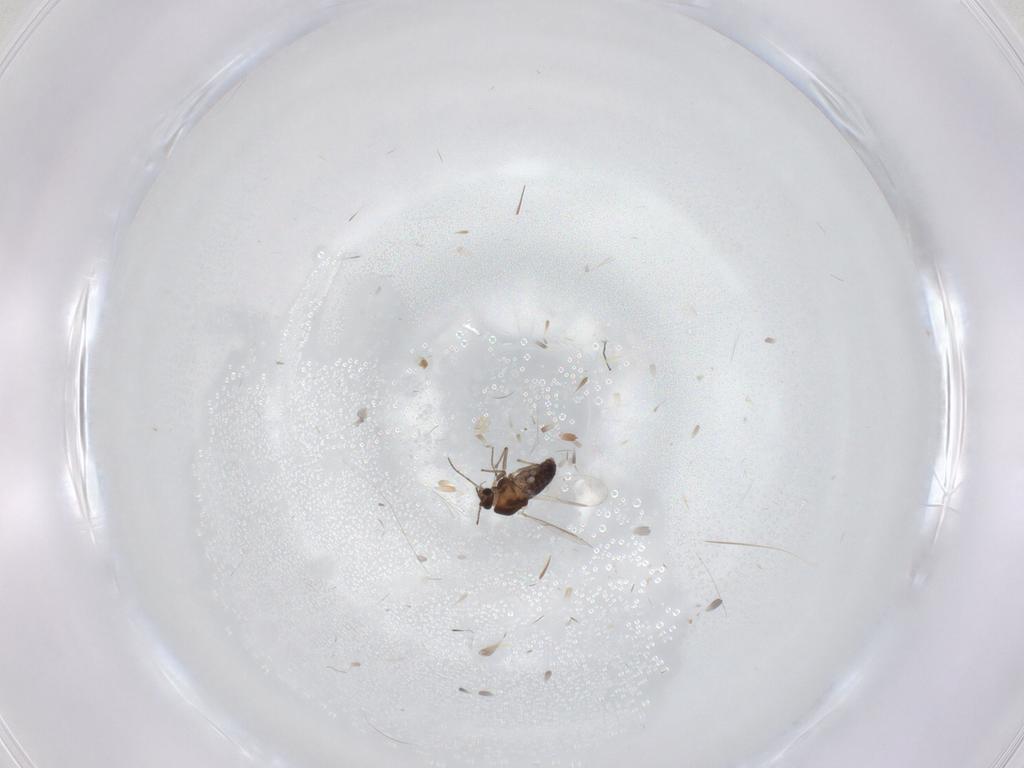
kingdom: Animalia
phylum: Arthropoda
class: Insecta
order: Diptera
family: Chironomidae
